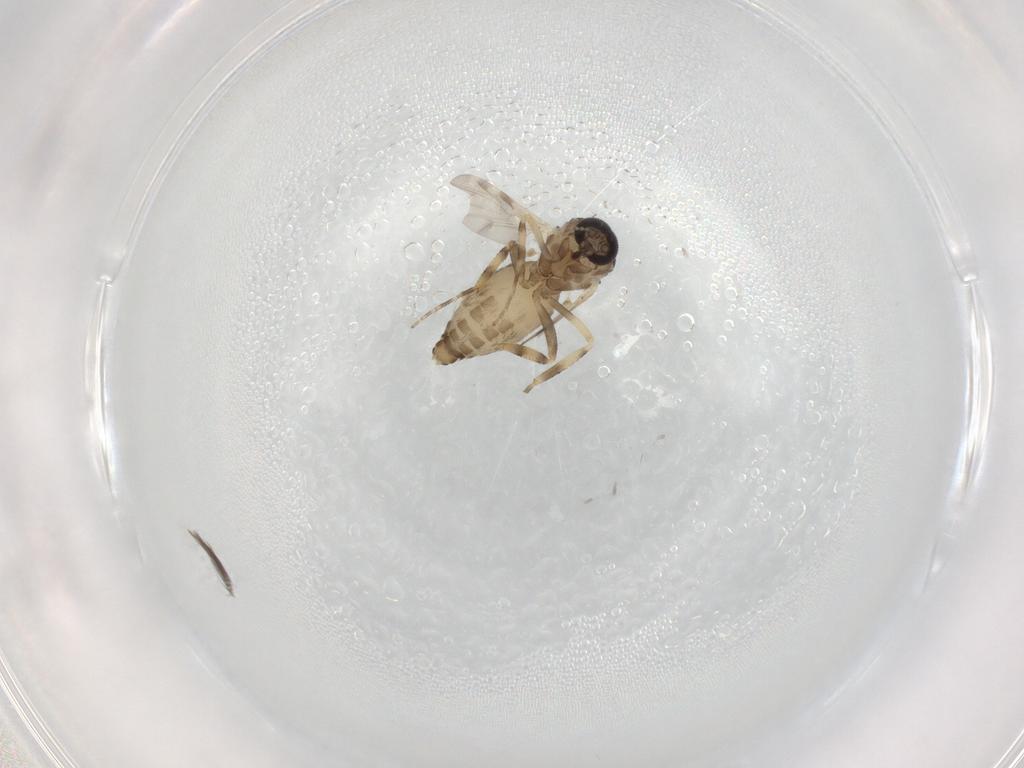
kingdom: Animalia
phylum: Arthropoda
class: Insecta
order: Diptera
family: Ceratopogonidae
